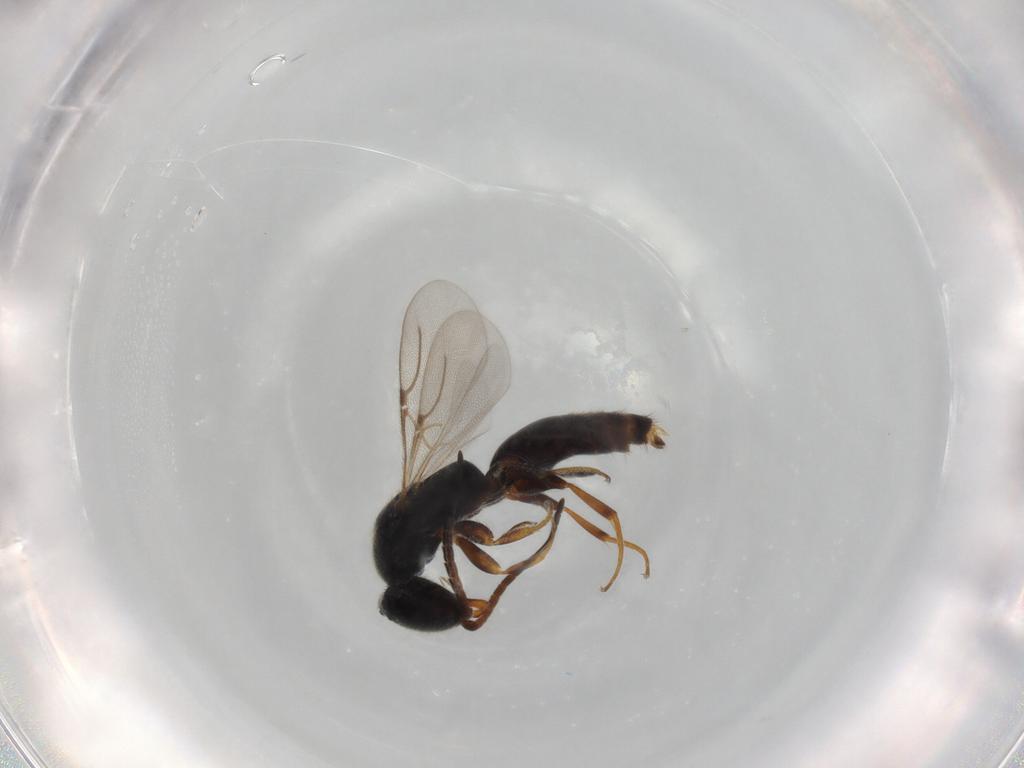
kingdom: Animalia
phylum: Arthropoda
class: Insecta
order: Hymenoptera
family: Bethylidae
